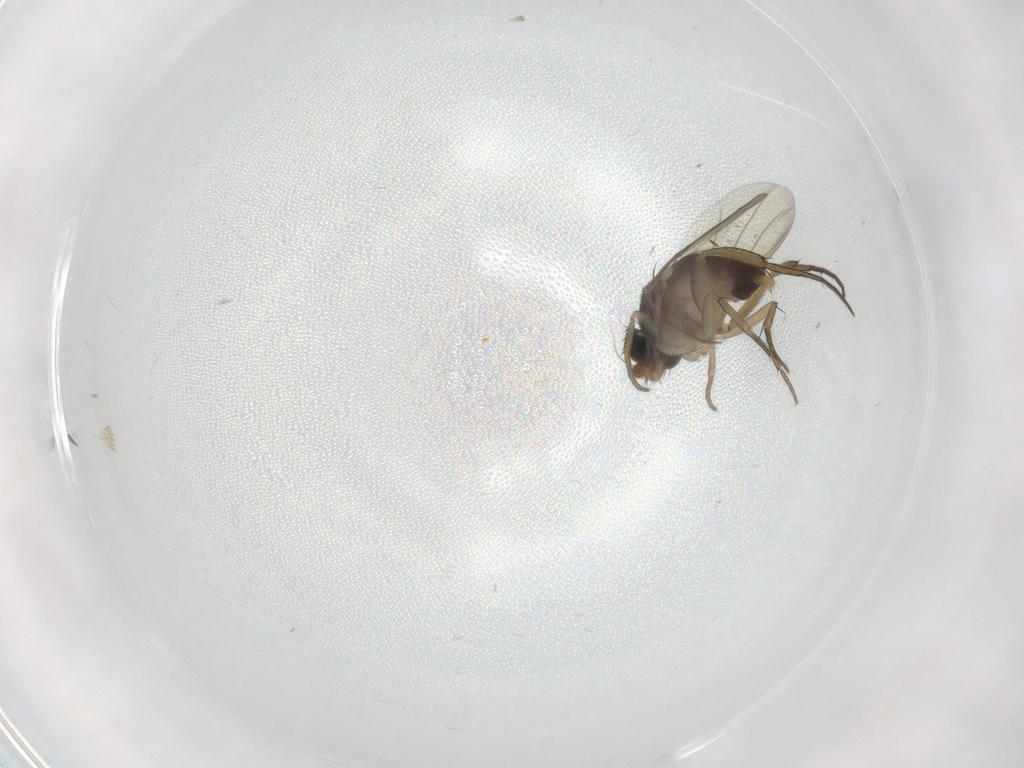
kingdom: Animalia
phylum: Arthropoda
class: Insecta
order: Diptera
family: Phoridae
